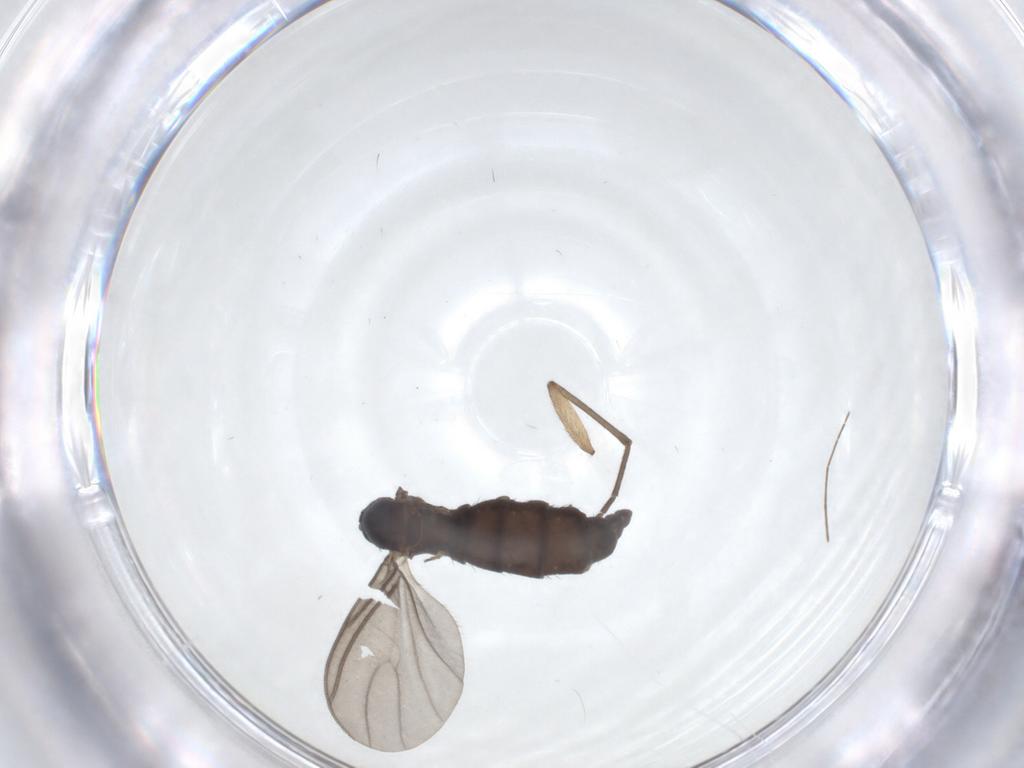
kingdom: Animalia
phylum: Arthropoda
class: Insecta
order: Diptera
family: Sciaridae
